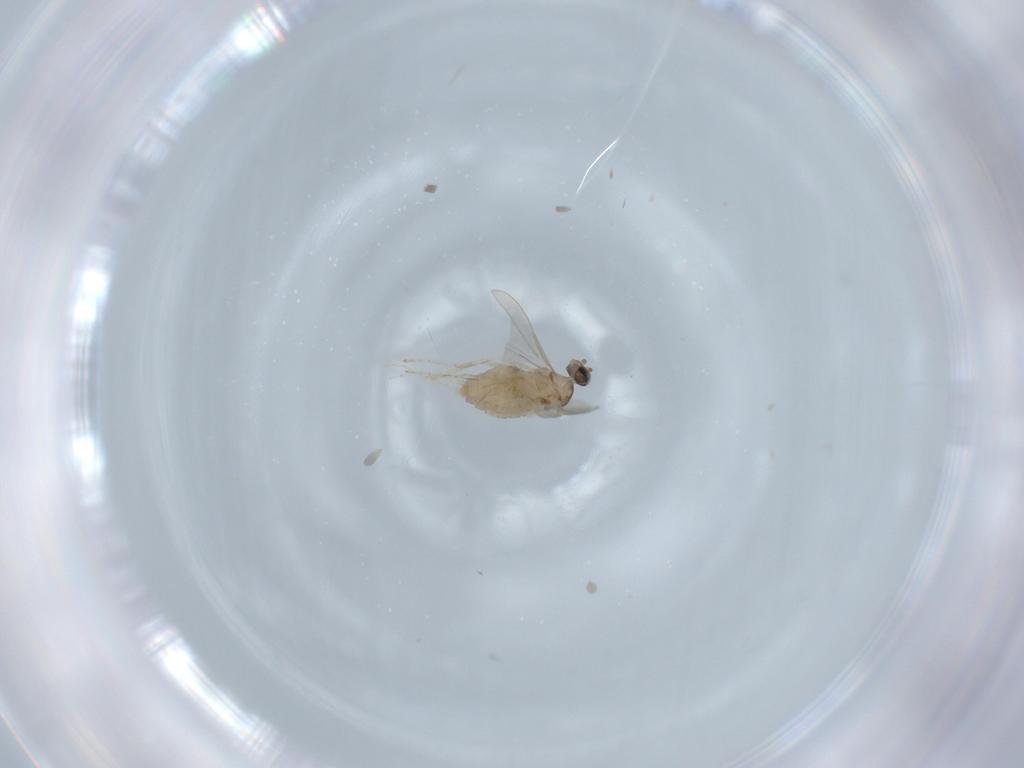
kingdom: Animalia
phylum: Arthropoda
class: Insecta
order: Diptera
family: Cecidomyiidae
